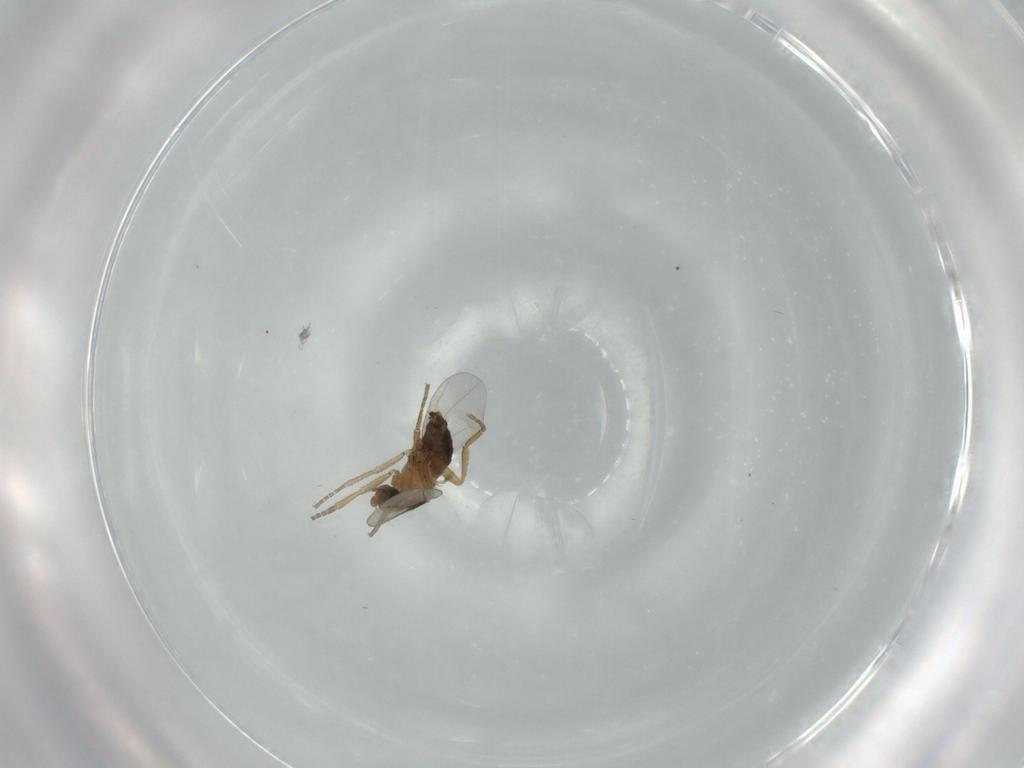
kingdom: Animalia
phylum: Arthropoda
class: Insecta
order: Diptera
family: Phoridae
